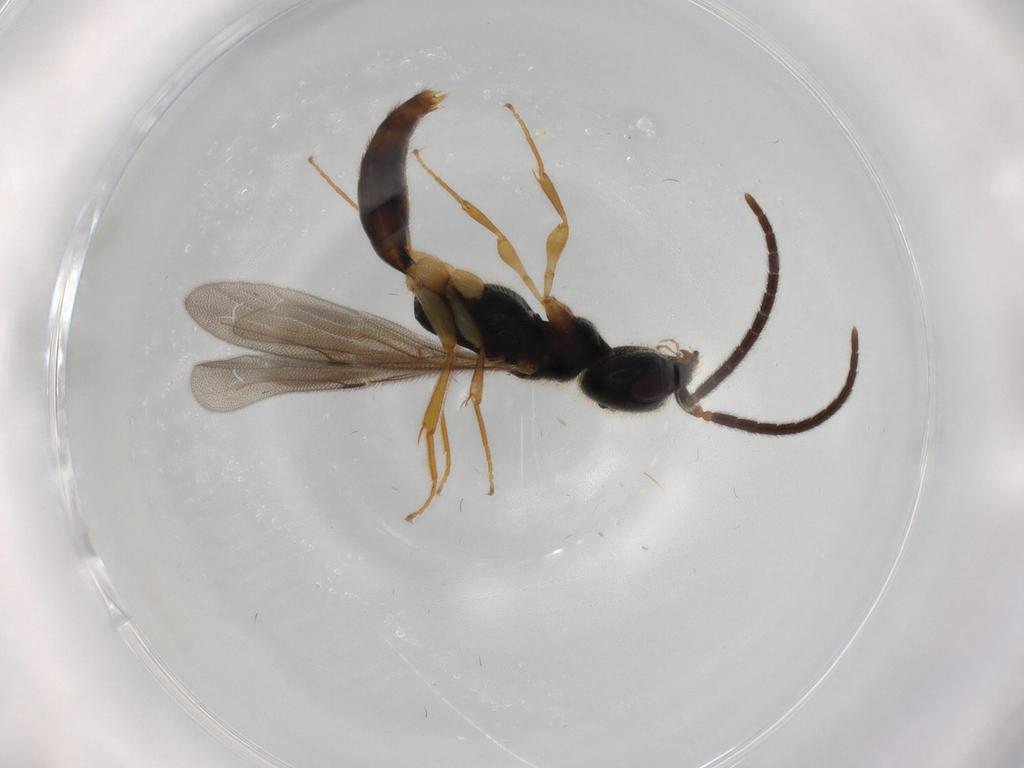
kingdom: Animalia
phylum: Arthropoda
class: Insecta
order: Hymenoptera
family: Bethylidae
